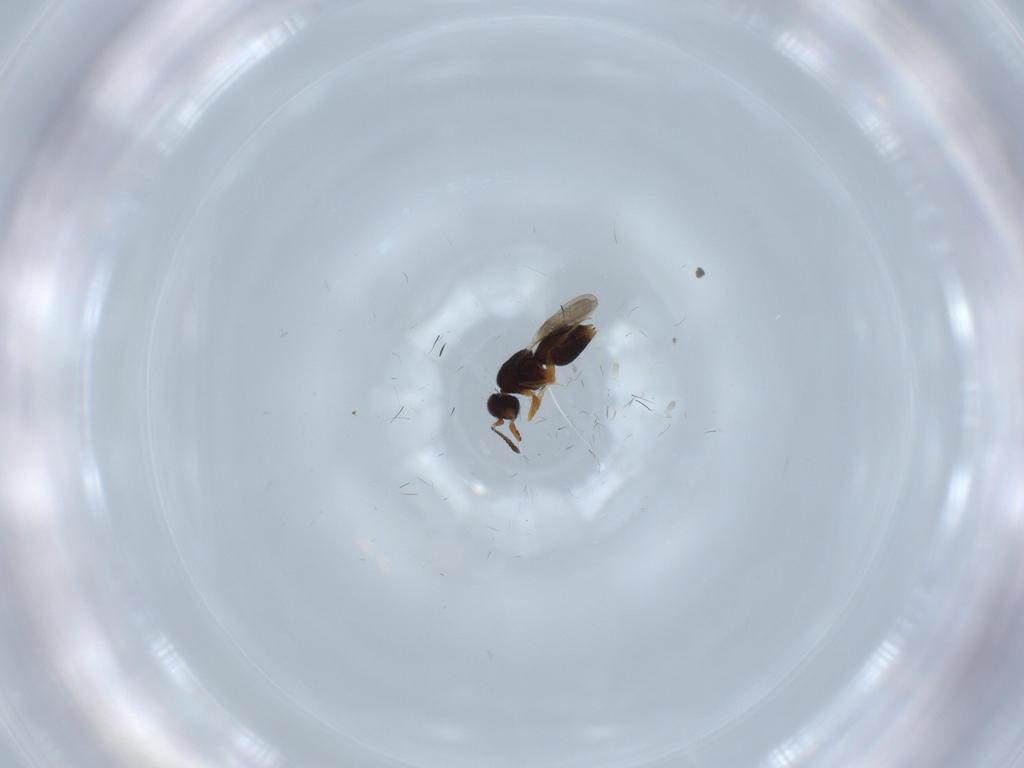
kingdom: Animalia
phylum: Arthropoda
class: Insecta
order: Hymenoptera
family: Ceraphronidae
